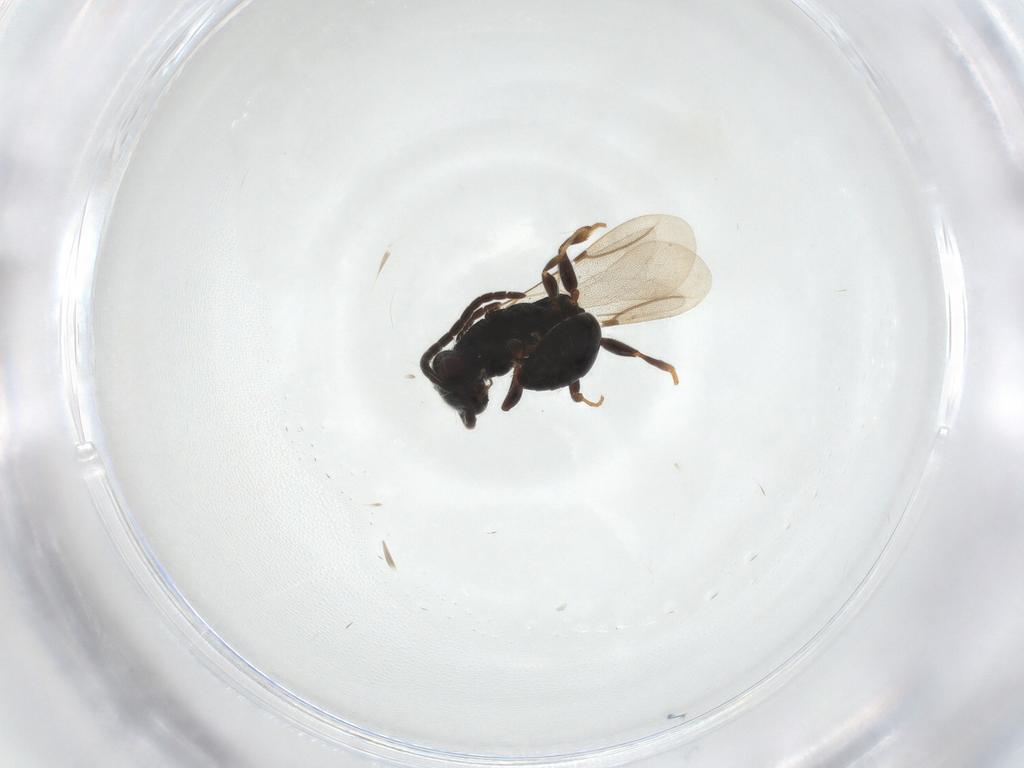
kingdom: Animalia
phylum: Arthropoda
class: Insecta
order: Hymenoptera
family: Bethylidae
